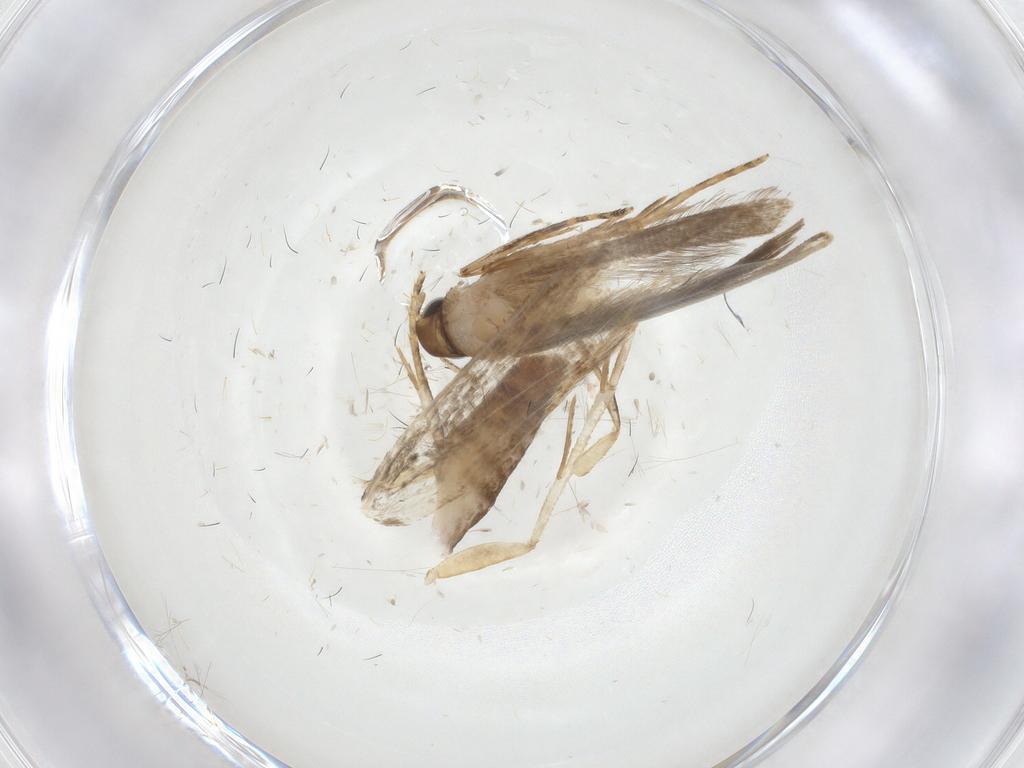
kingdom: Animalia
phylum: Arthropoda
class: Insecta
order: Lepidoptera
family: Gelechiidae
